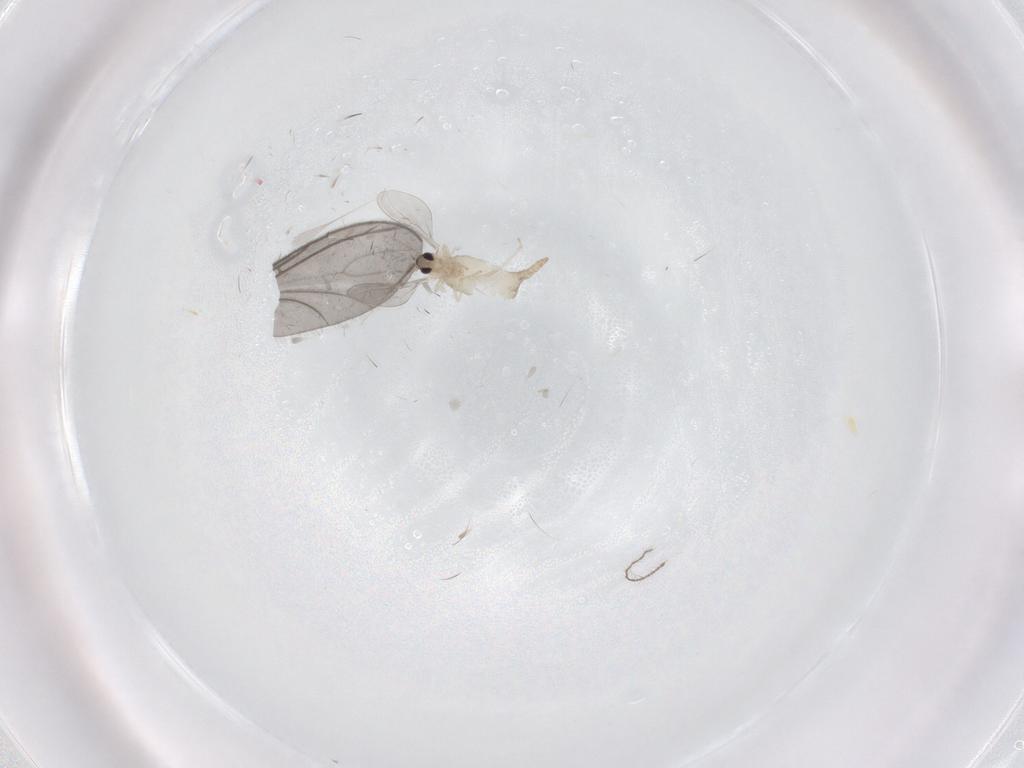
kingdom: Animalia
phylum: Arthropoda
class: Insecta
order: Diptera
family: Cecidomyiidae
